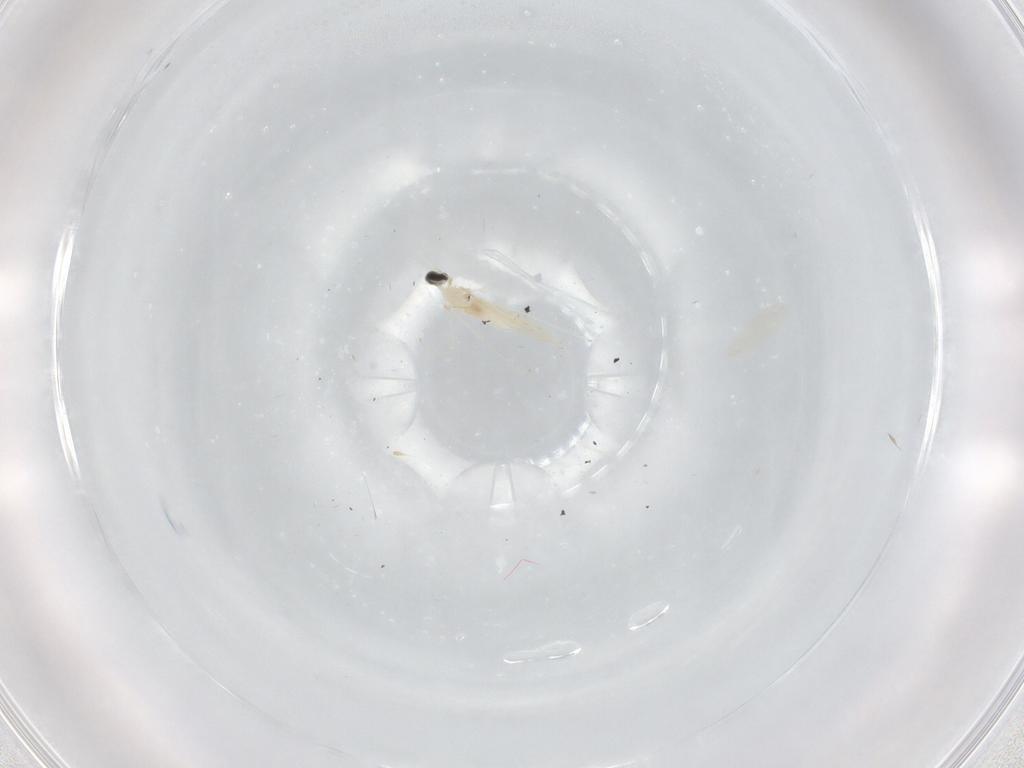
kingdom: Animalia
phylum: Arthropoda
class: Insecta
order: Diptera
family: Cecidomyiidae
